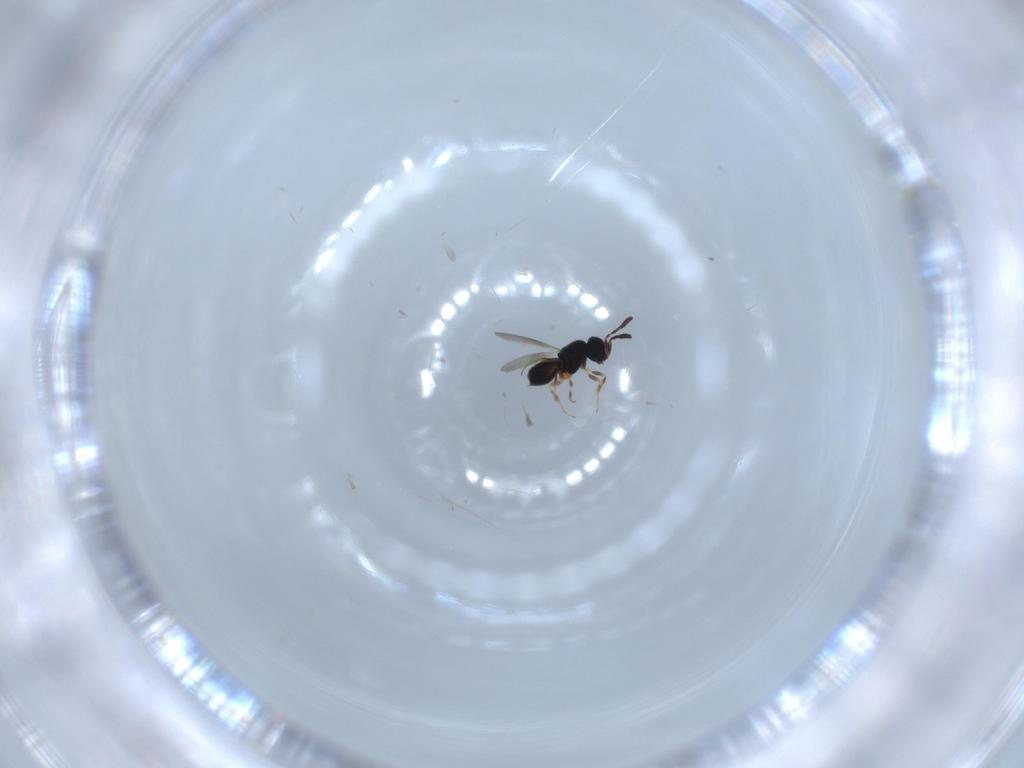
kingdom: Animalia
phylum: Arthropoda
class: Insecta
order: Hymenoptera
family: Scelionidae
